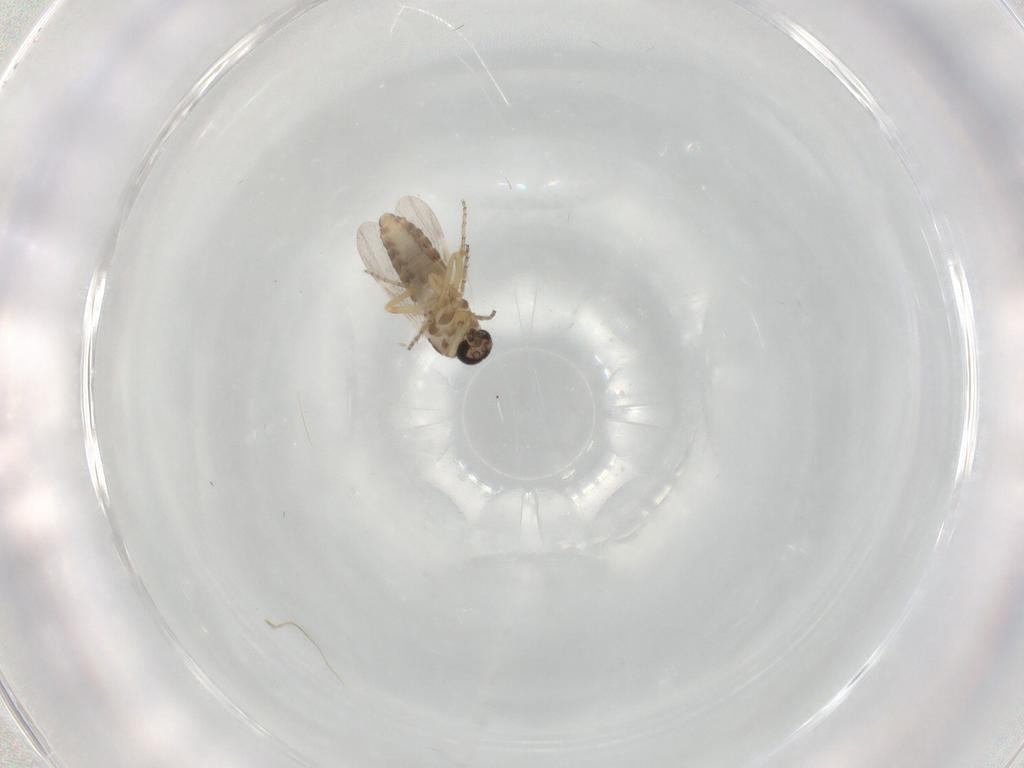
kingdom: Animalia
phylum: Arthropoda
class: Insecta
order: Diptera
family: Ceratopogonidae
